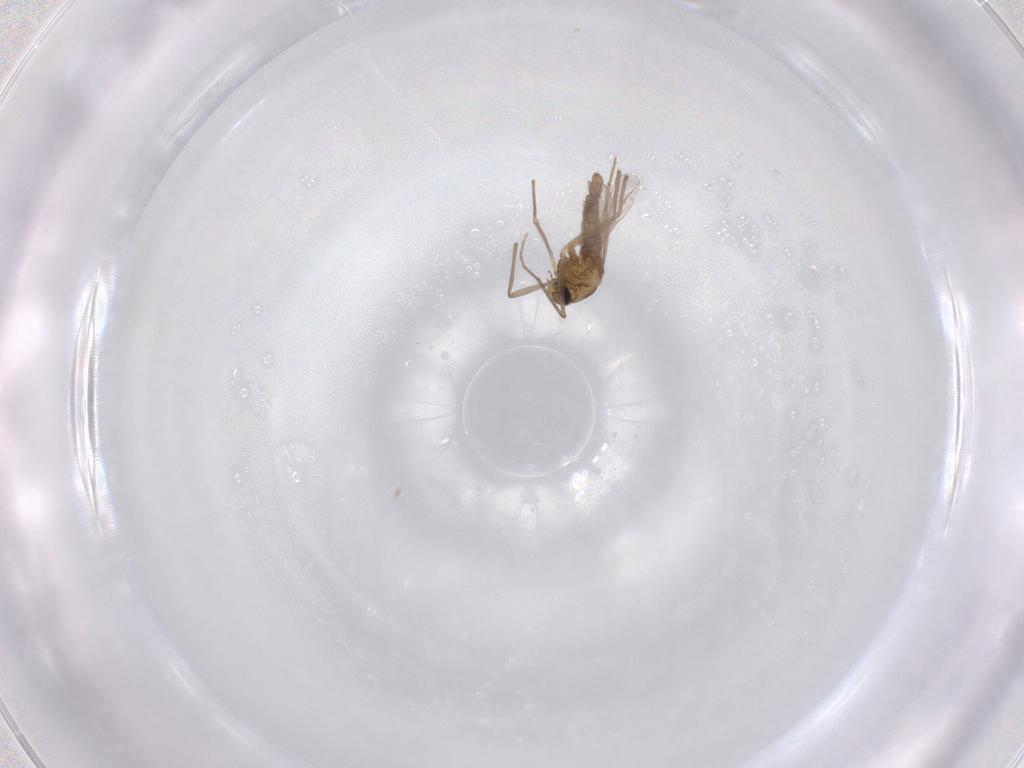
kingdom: Animalia
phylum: Arthropoda
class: Insecta
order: Diptera
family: Chironomidae
